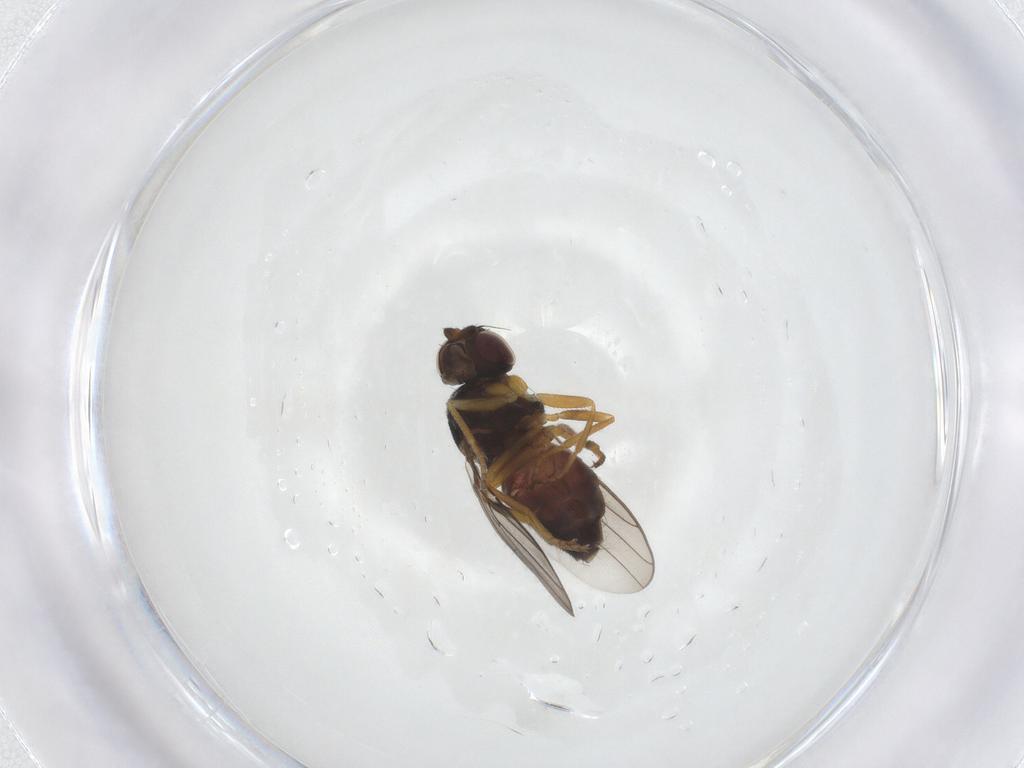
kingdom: Animalia
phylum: Arthropoda
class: Insecta
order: Diptera
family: Chloropidae
